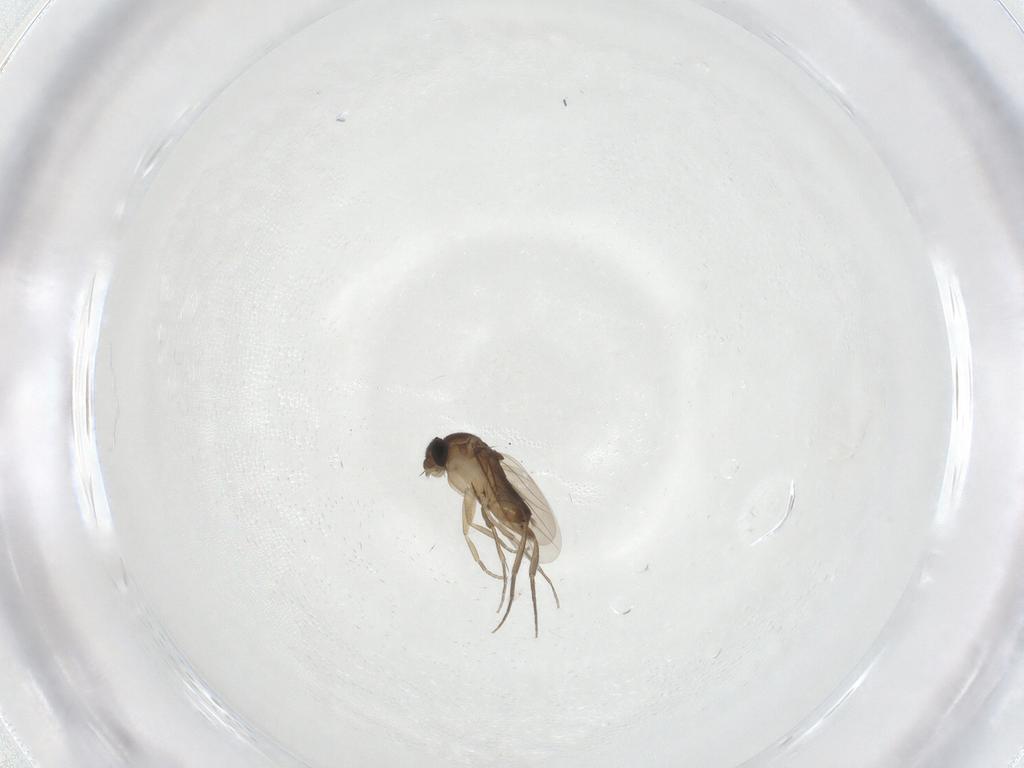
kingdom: Animalia
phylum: Arthropoda
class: Insecta
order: Diptera
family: Phoridae
